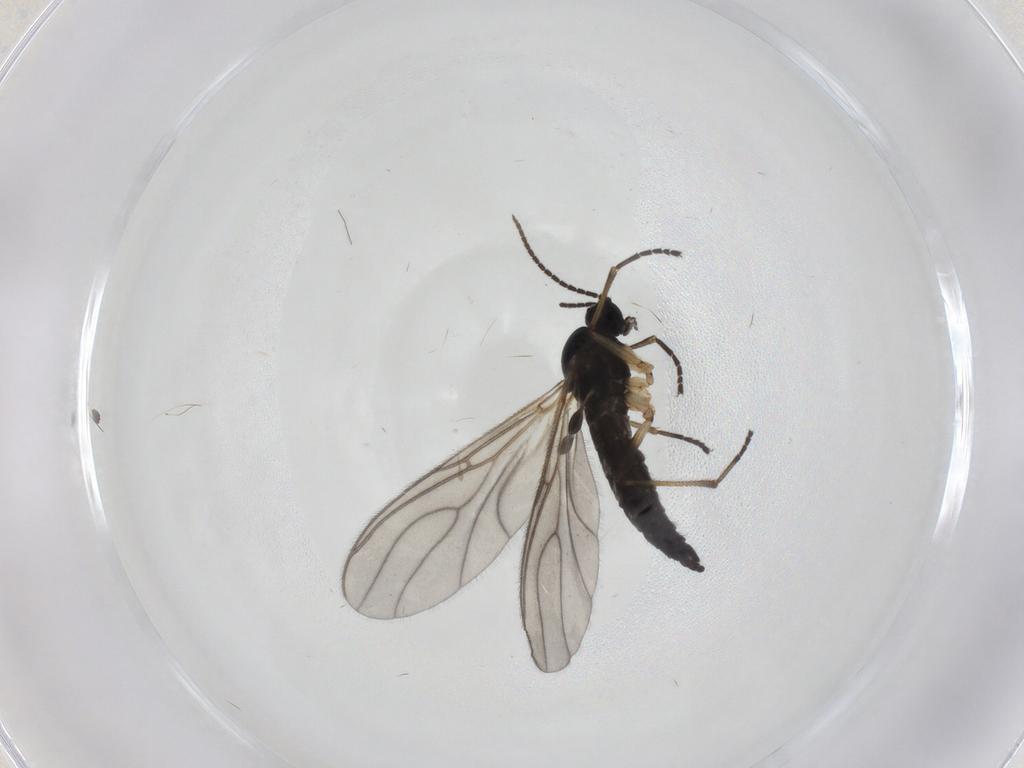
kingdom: Animalia
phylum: Arthropoda
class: Insecta
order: Diptera
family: Sciaridae
